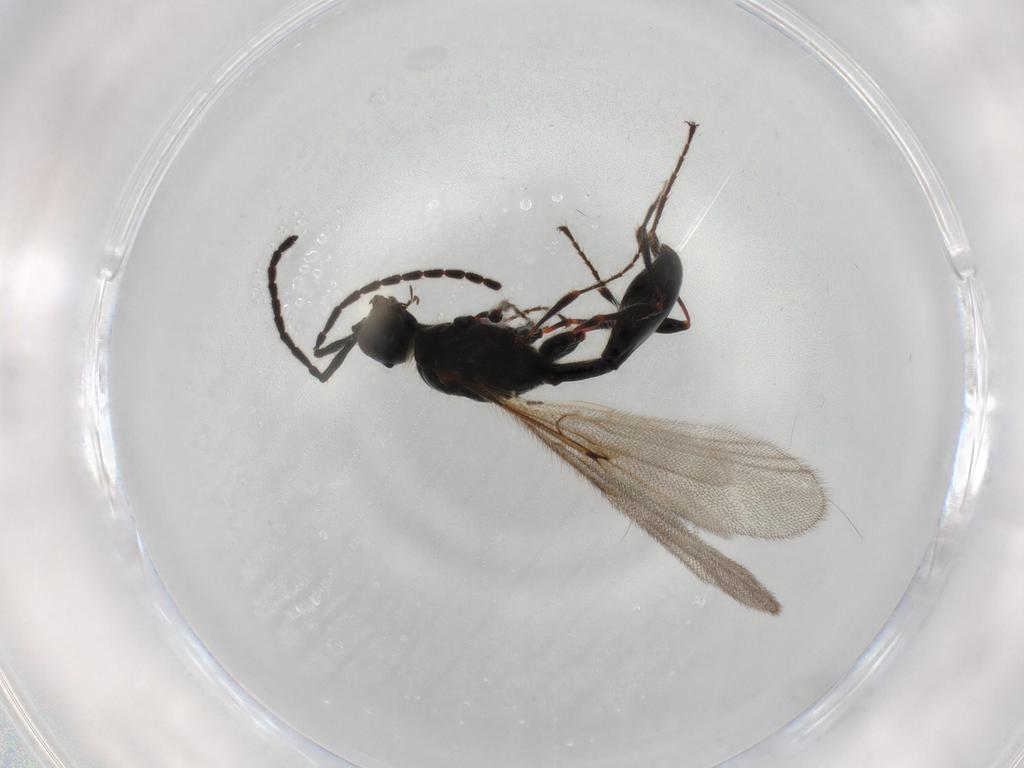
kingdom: Animalia
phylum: Arthropoda
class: Insecta
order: Hymenoptera
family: Diapriidae
